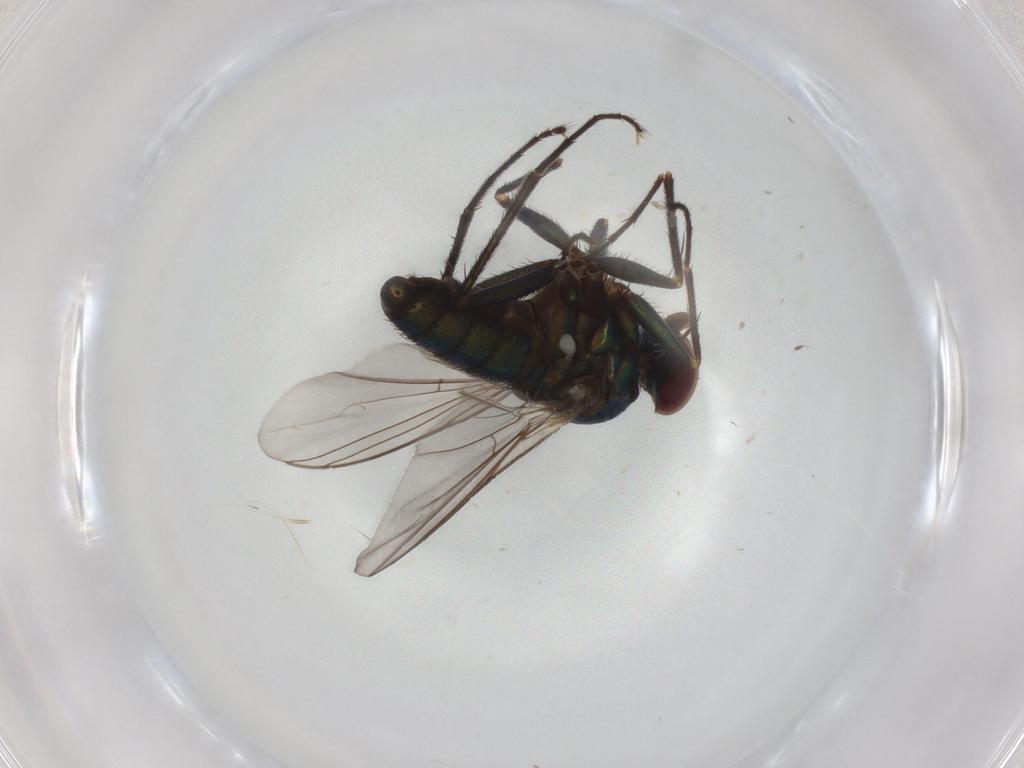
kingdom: Animalia
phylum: Arthropoda
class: Insecta
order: Diptera
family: Dolichopodidae
